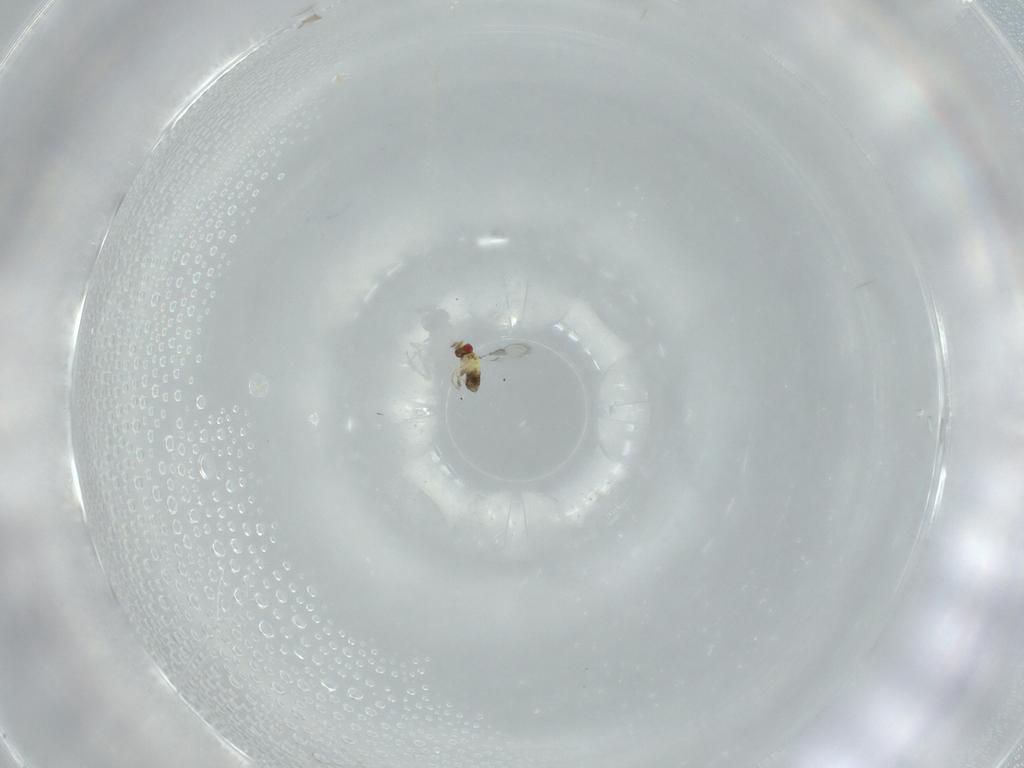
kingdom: Animalia
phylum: Arthropoda
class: Insecta
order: Hymenoptera
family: Trichogrammatidae
